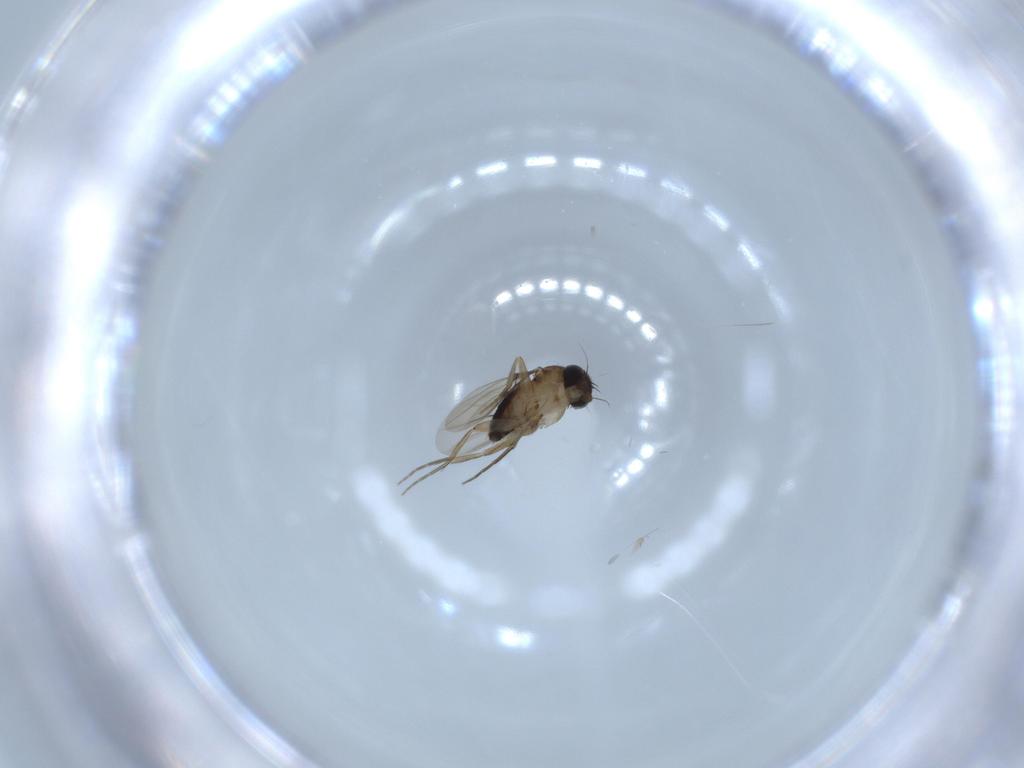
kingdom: Animalia
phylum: Arthropoda
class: Insecta
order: Diptera
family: Phoridae
